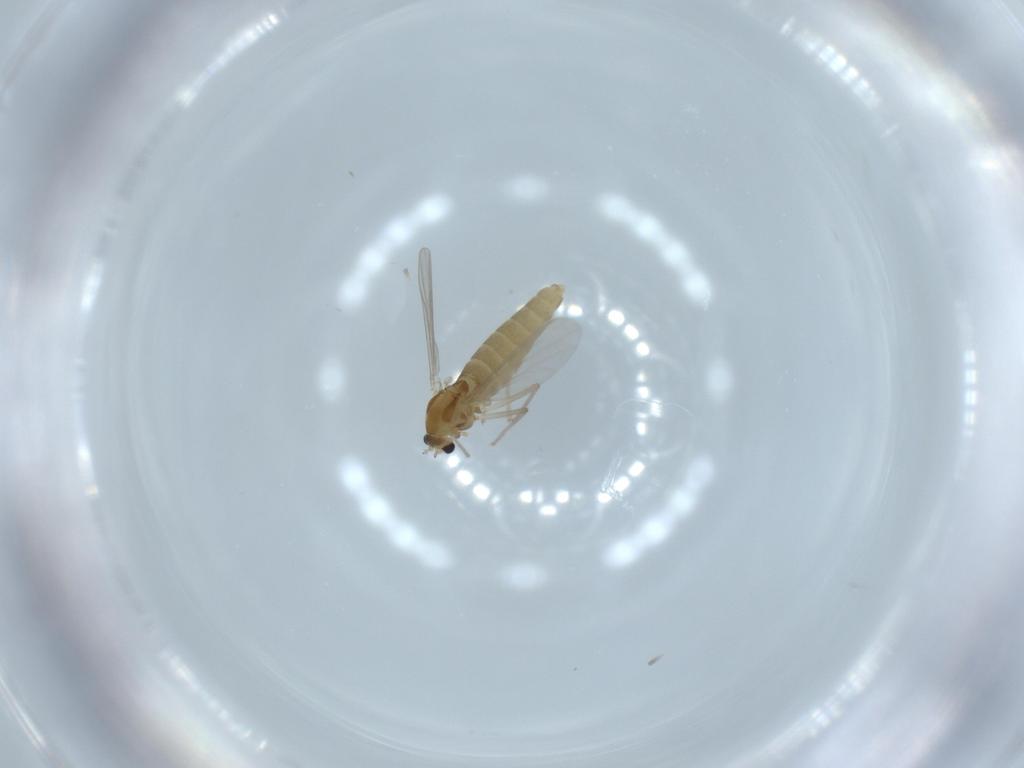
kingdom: Animalia
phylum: Arthropoda
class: Insecta
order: Diptera
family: Chironomidae
